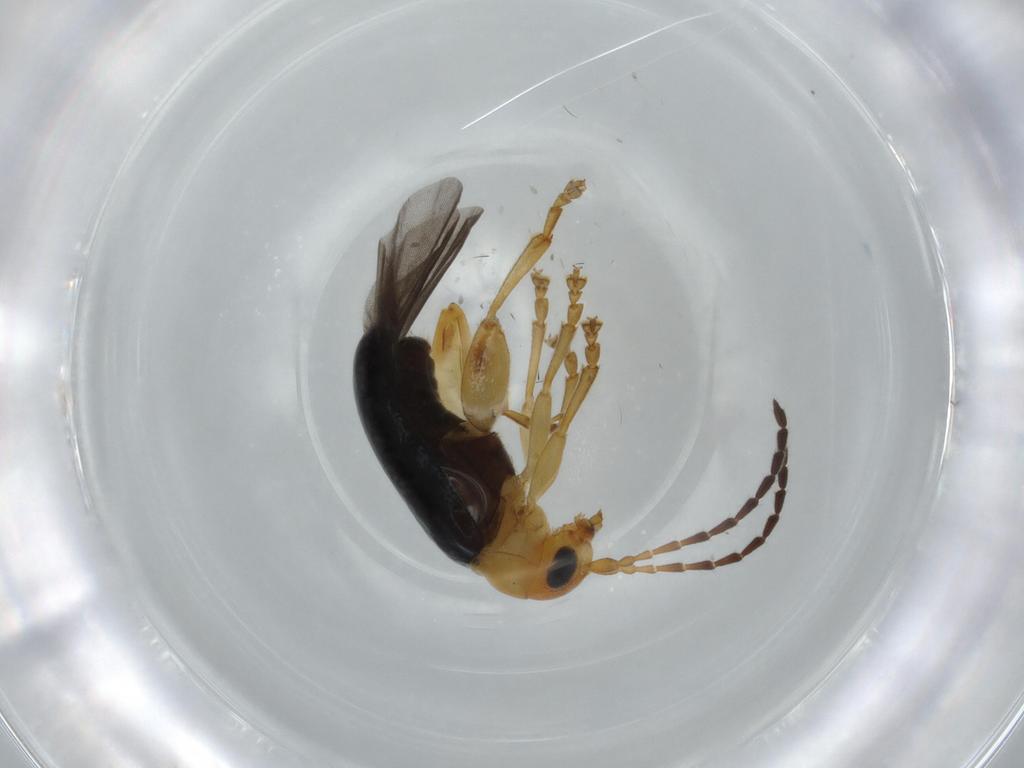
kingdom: Animalia
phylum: Arthropoda
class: Insecta
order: Coleoptera
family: Chrysomelidae
